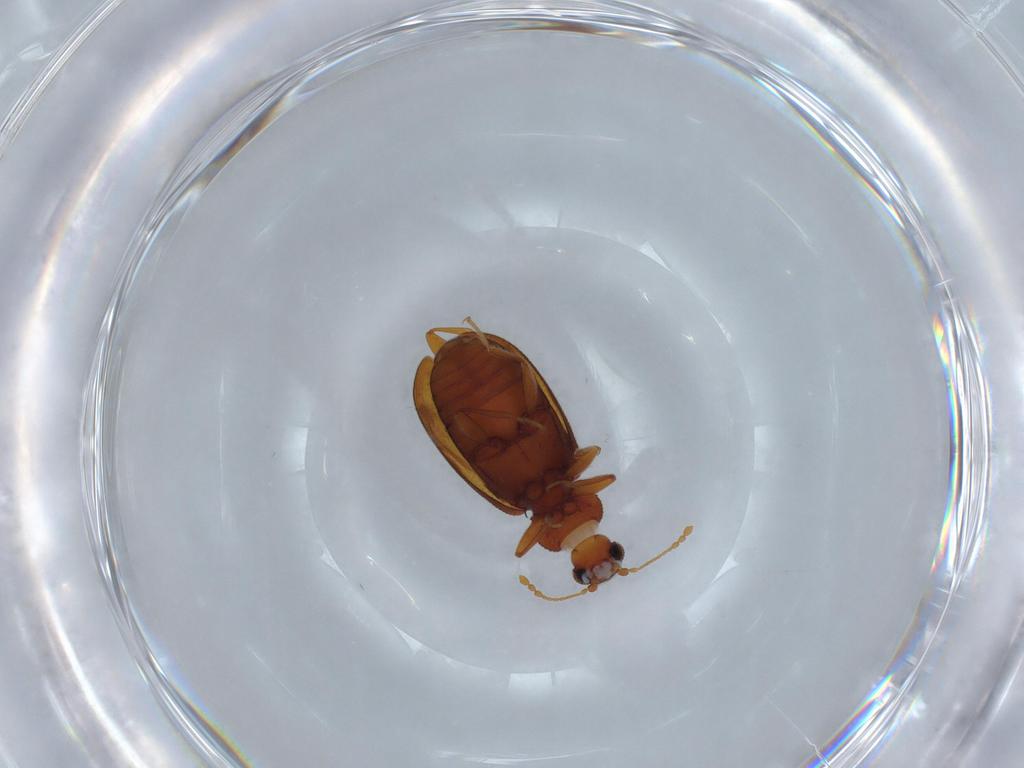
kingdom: Animalia
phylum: Arthropoda
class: Insecta
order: Coleoptera
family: Latridiidae
